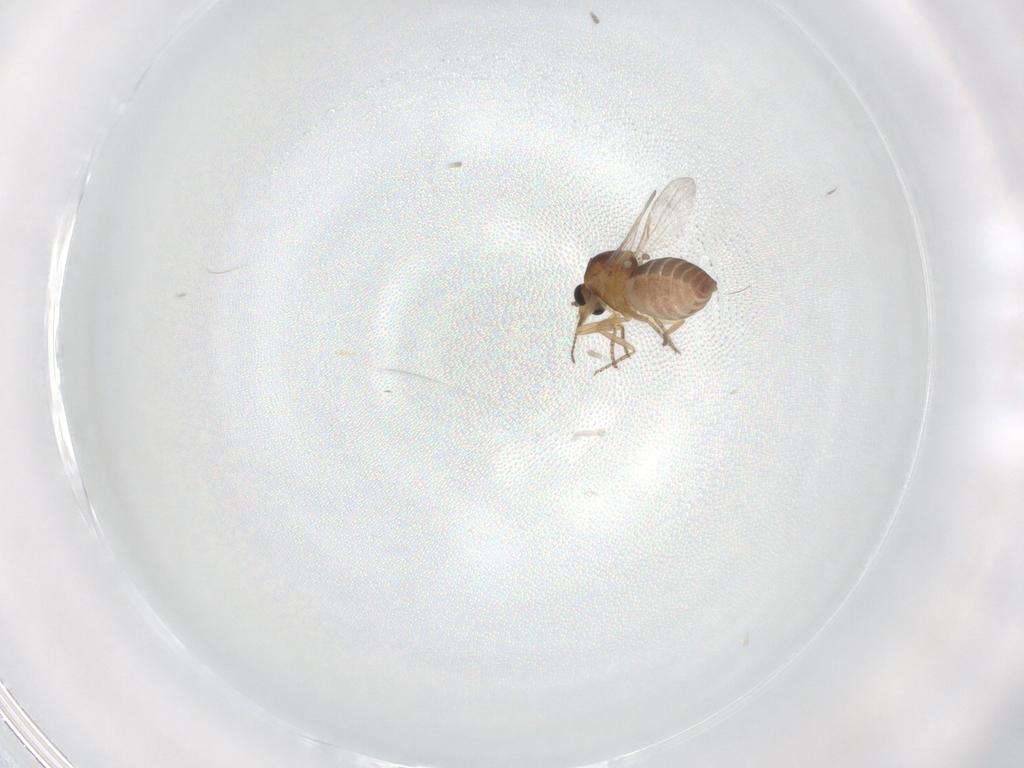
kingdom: Animalia
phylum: Arthropoda
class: Insecta
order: Diptera
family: Ceratopogonidae
